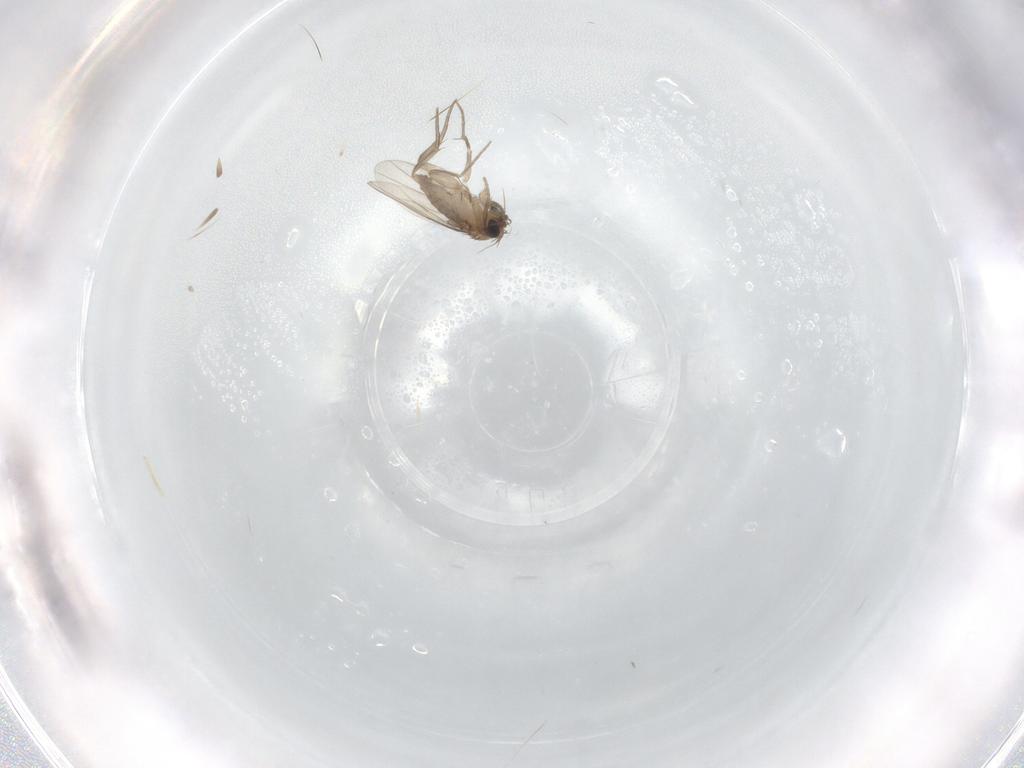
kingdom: Animalia
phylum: Arthropoda
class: Insecta
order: Diptera
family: Phoridae
